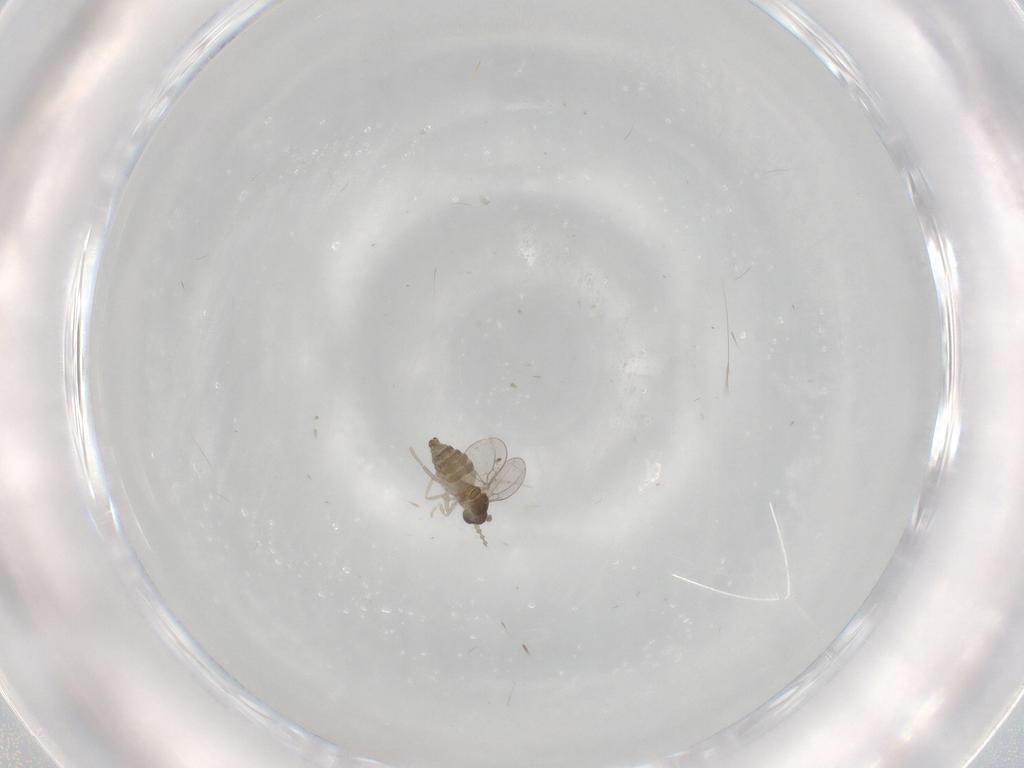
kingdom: Animalia
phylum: Arthropoda
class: Insecta
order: Diptera
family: Cecidomyiidae
